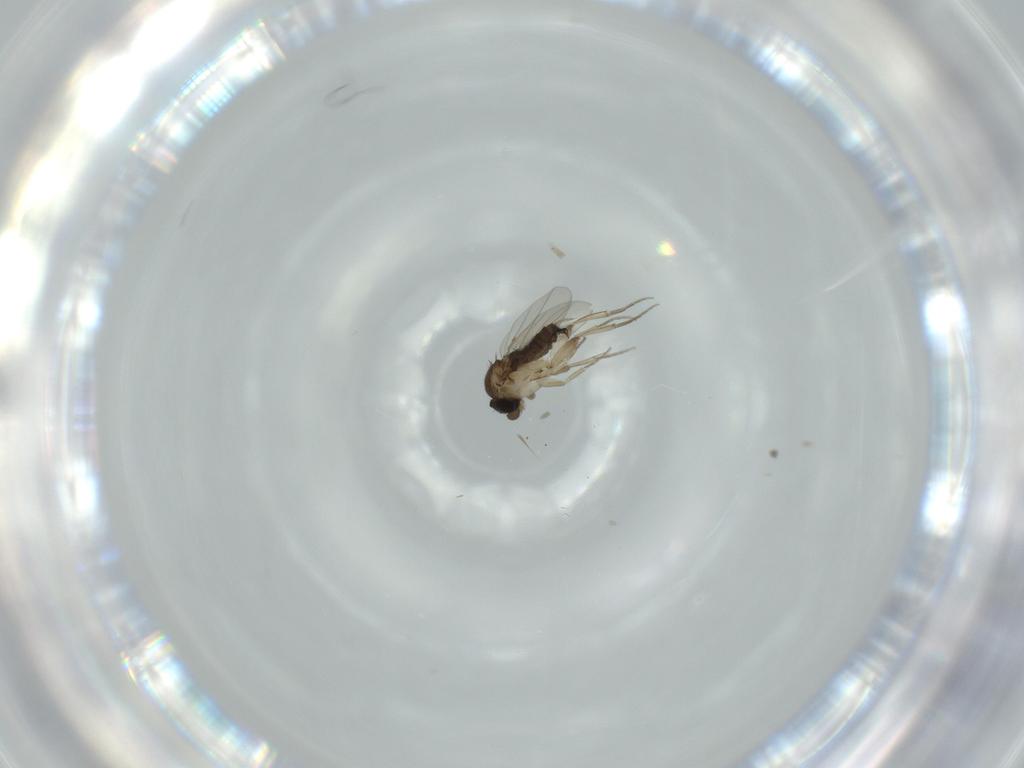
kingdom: Animalia
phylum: Arthropoda
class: Insecta
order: Diptera
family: Phoridae
